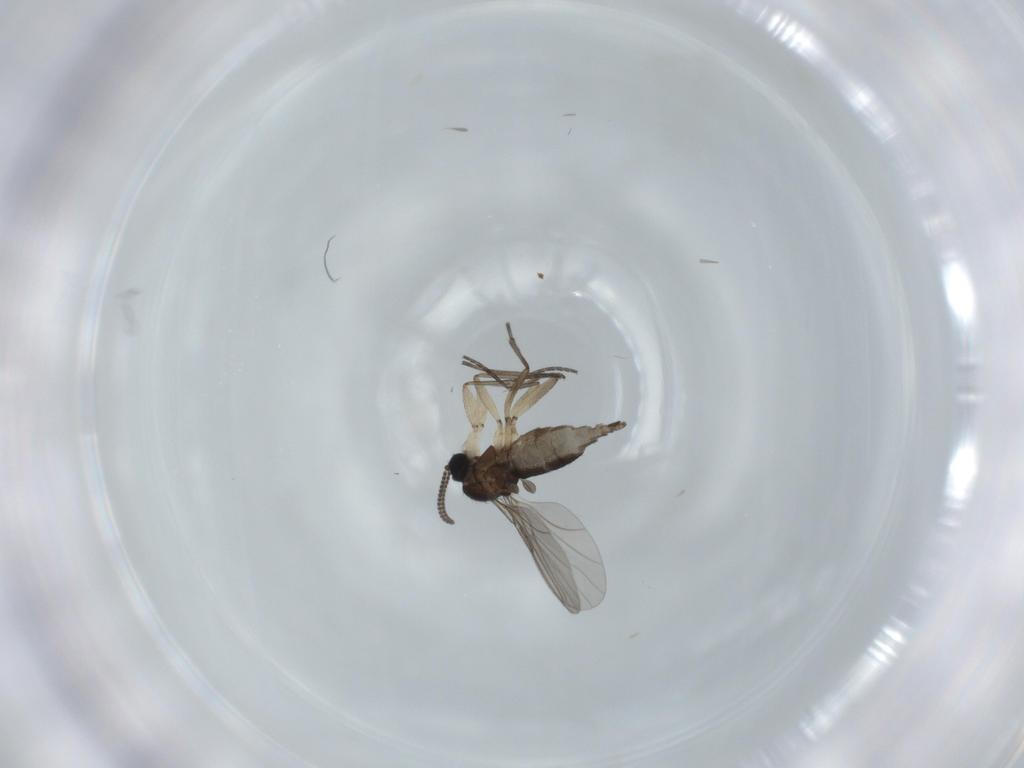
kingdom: Animalia
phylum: Arthropoda
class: Insecta
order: Diptera
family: Sciaridae
